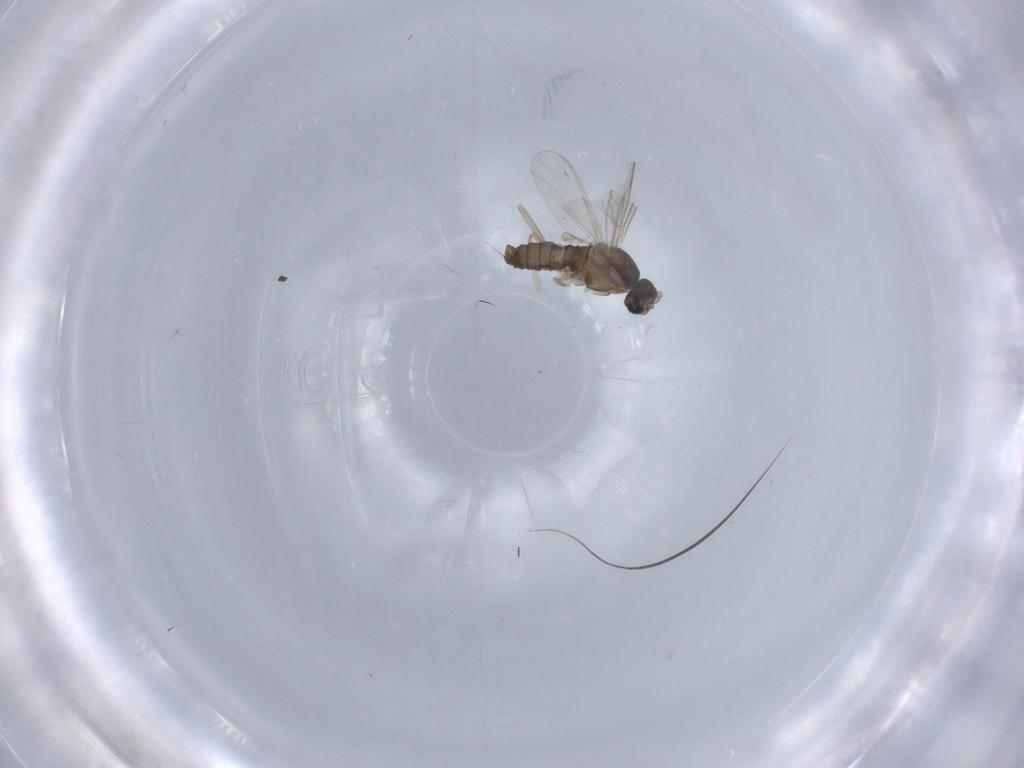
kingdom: Animalia
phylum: Arthropoda
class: Insecta
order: Diptera
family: Cecidomyiidae
